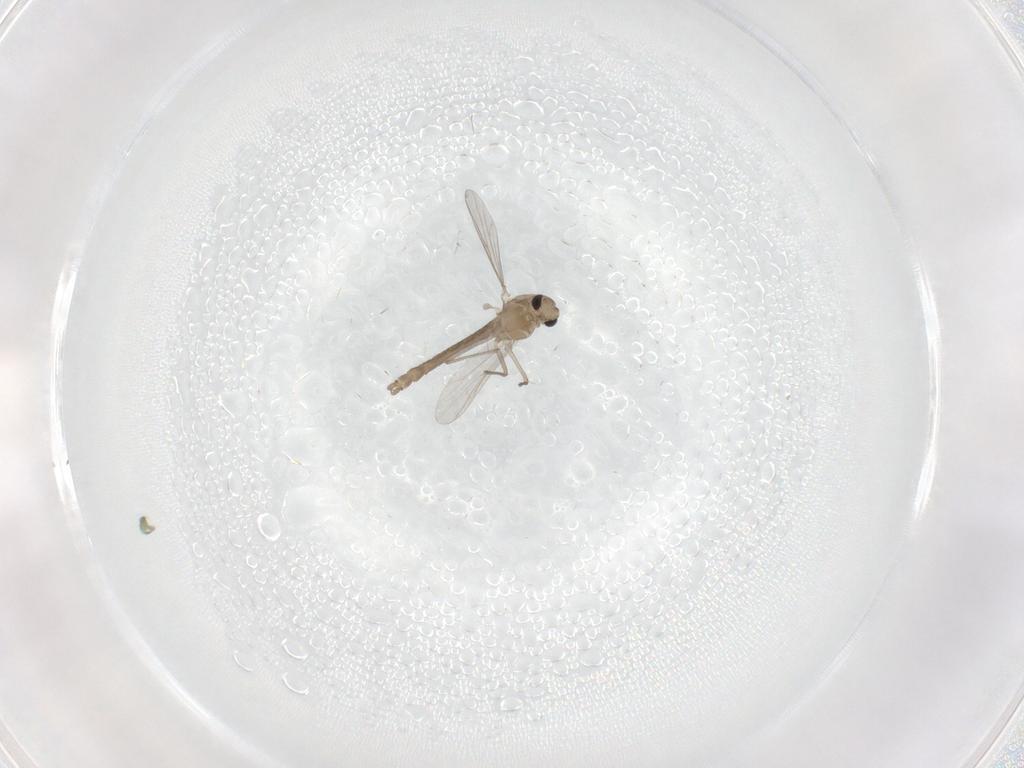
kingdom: Animalia
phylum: Arthropoda
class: Insecta
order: Diptera
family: Chironomidae
